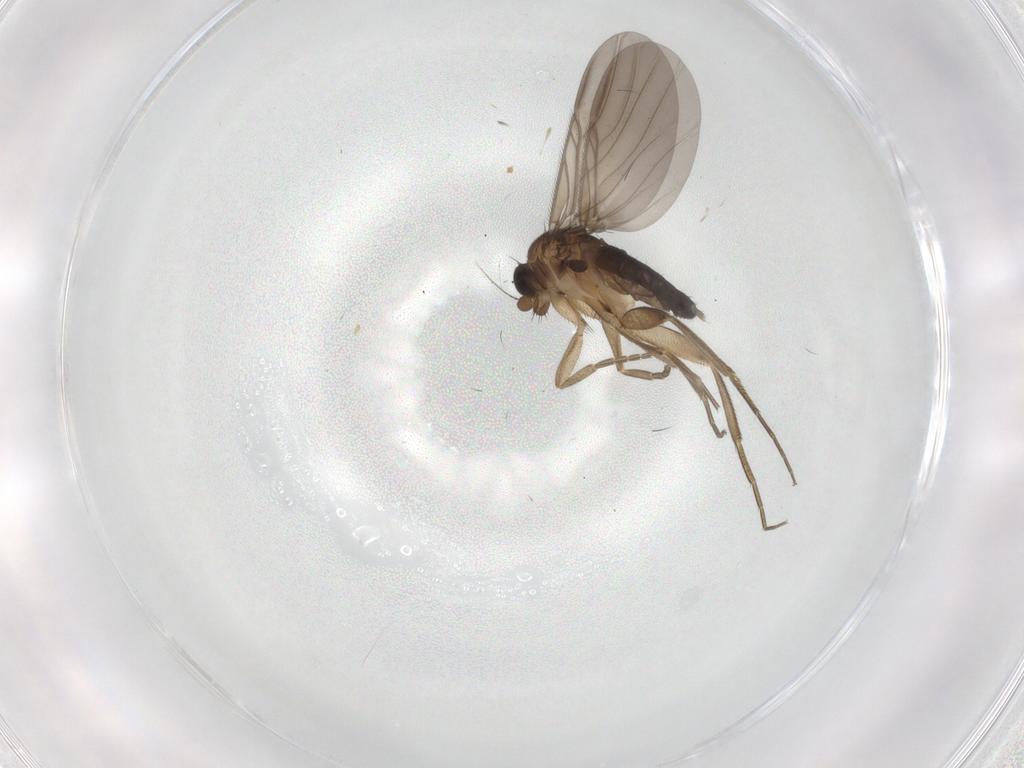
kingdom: Animalia
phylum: Arthropoda
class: Insecta
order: Diptera
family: Phoridae
